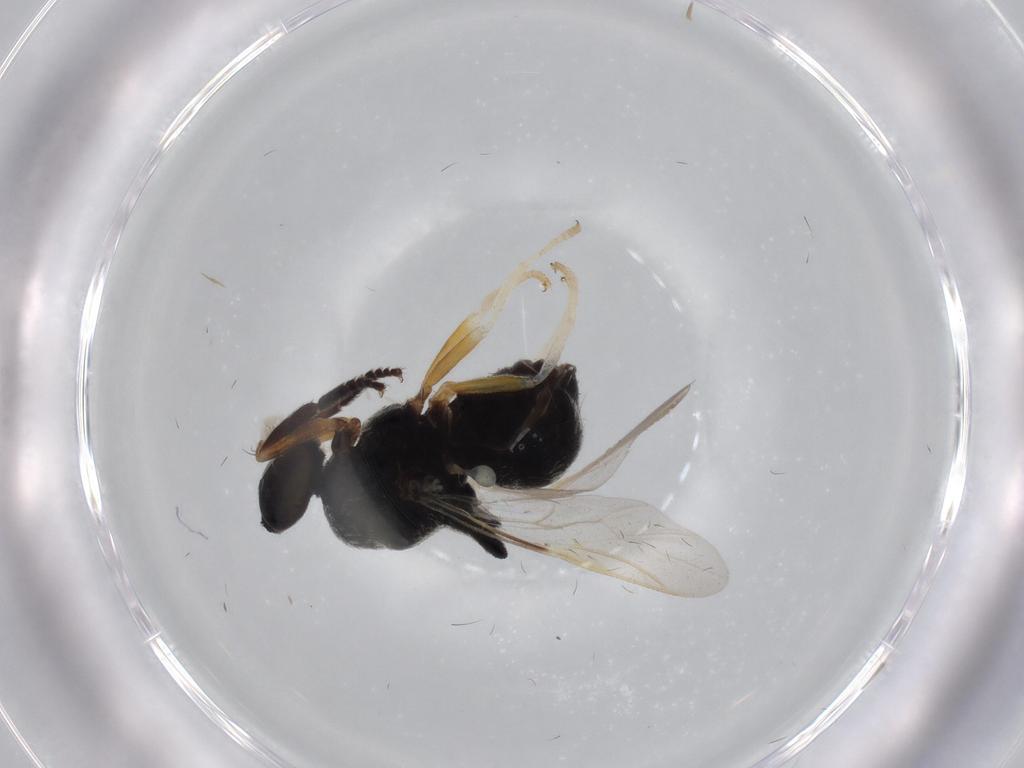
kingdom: Animalia
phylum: Arthropoda
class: Insecta
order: Diptera
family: Stratiomyidae
